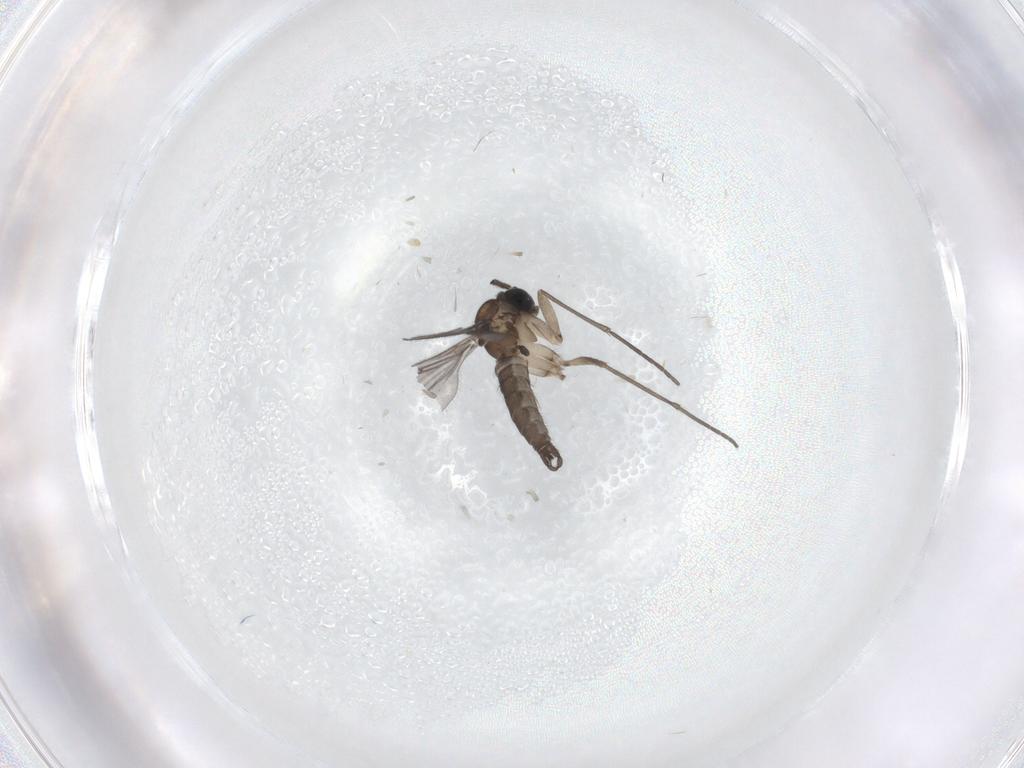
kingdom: Animalia
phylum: Arthropoda
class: Insecta
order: Diptera
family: Sciaridae
